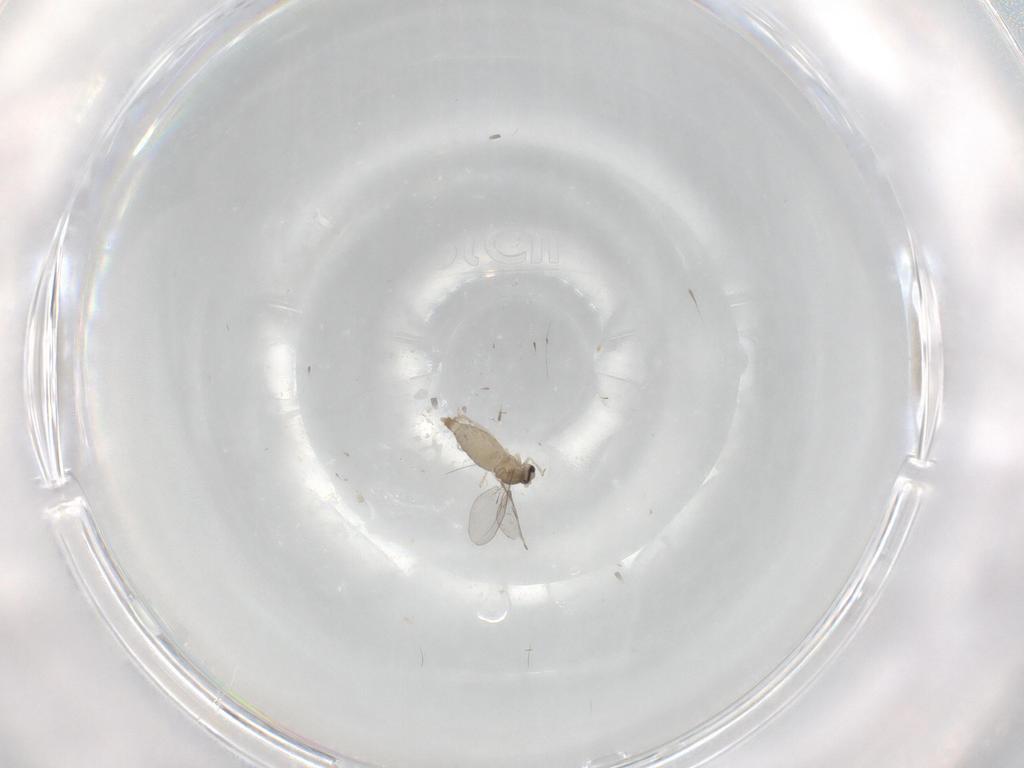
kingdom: Animalia
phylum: Arthropoda
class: Insecta
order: Diptera
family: Cecidomyiidae
